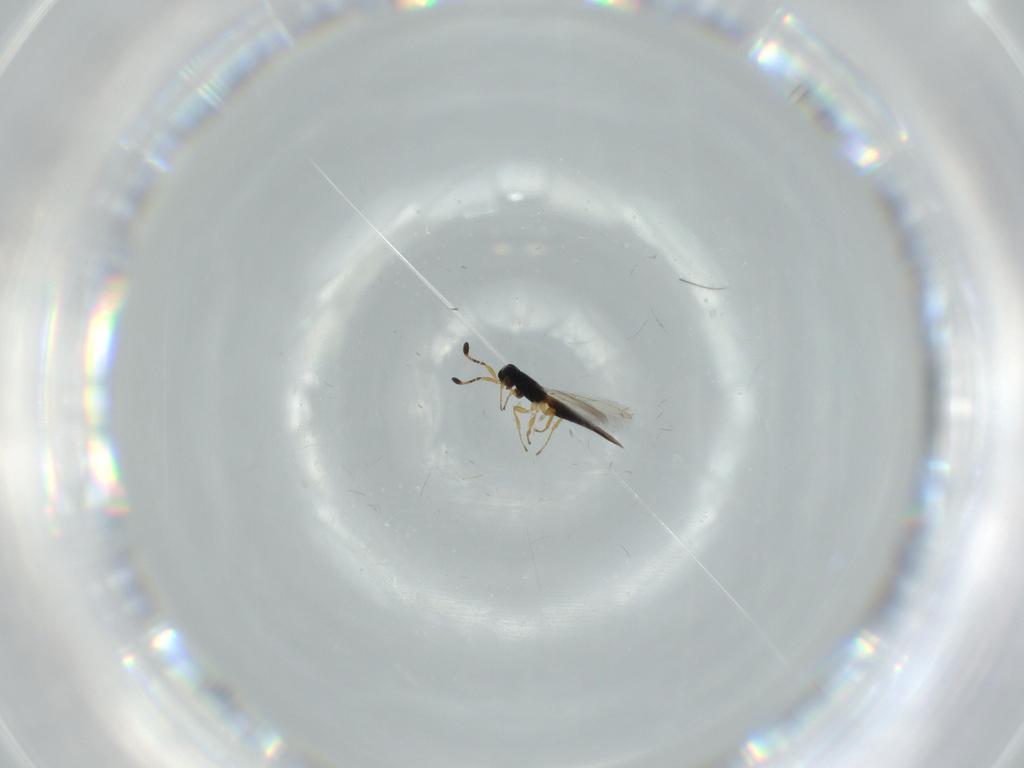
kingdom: Animalia
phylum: Arthropoda
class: Insecta
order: Hymenoptera
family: Scelionidae
